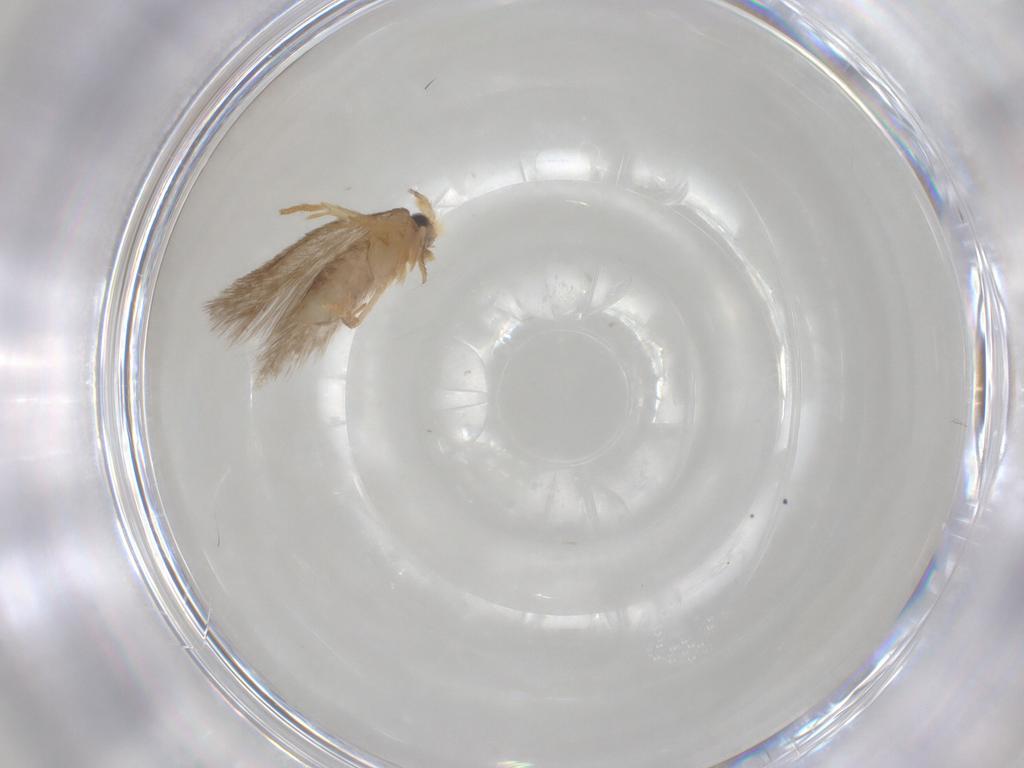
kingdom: Animalia
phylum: Arthropoda
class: Insecta
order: Lepidoptera
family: Nepticulidae
